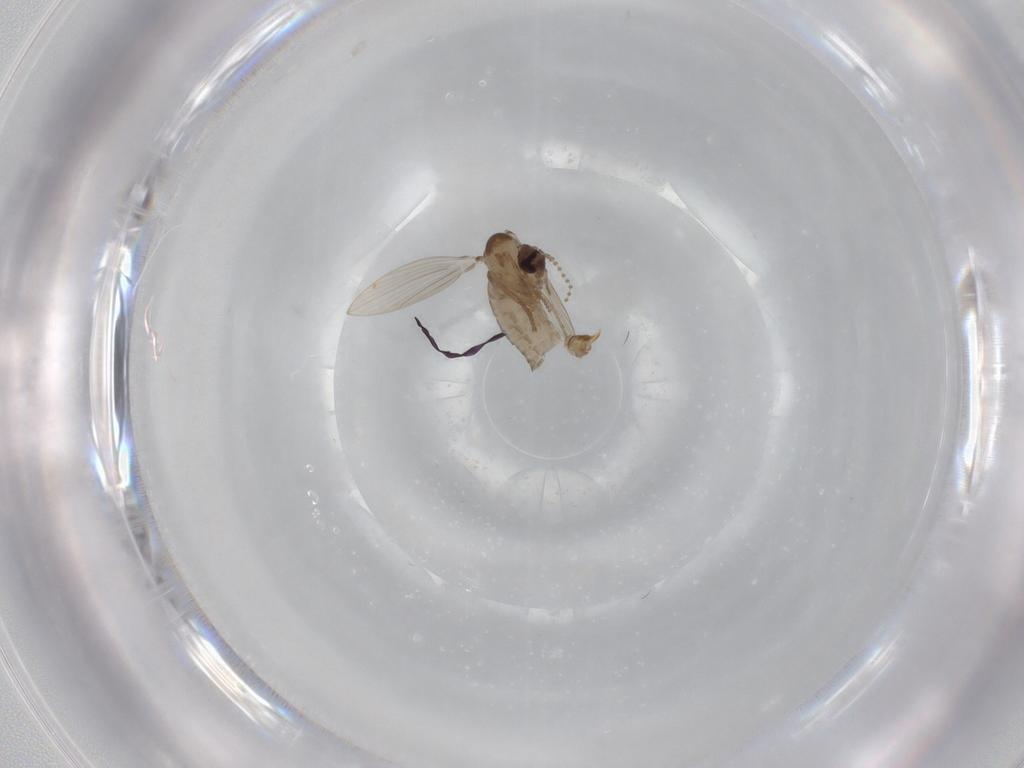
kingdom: Animalia
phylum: Arthropoda
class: Insecta
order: Diptera
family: Psychodidae
